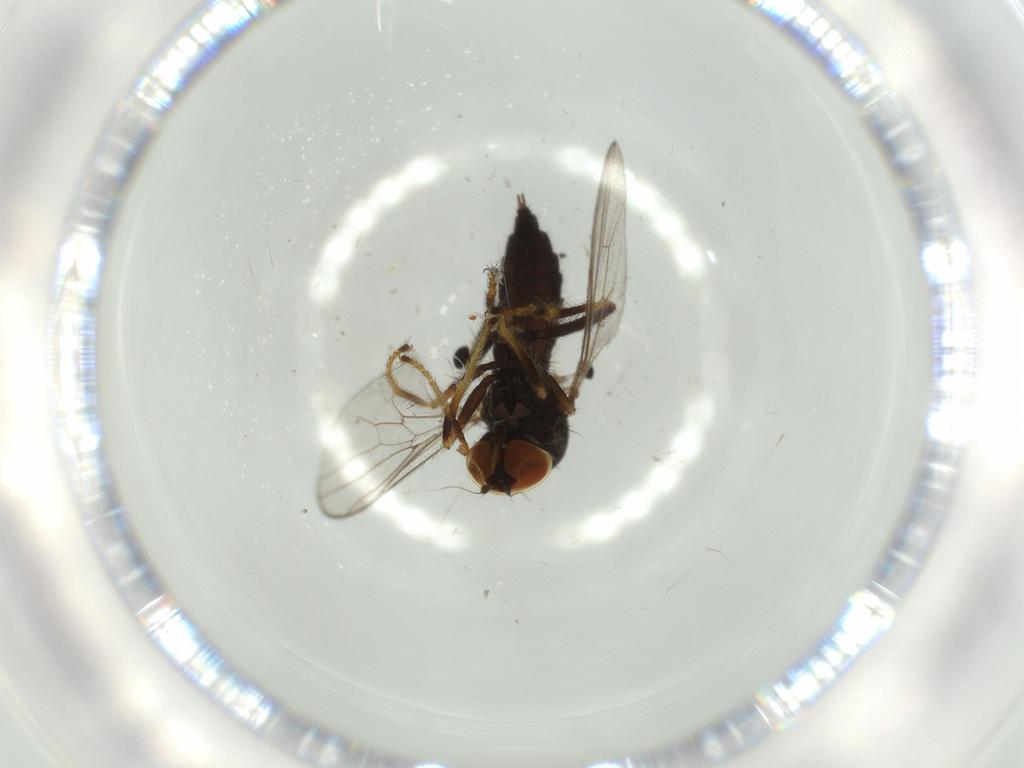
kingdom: Animalia
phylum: Arthropoda
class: Insecta
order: Diptera
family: Hybotidae
